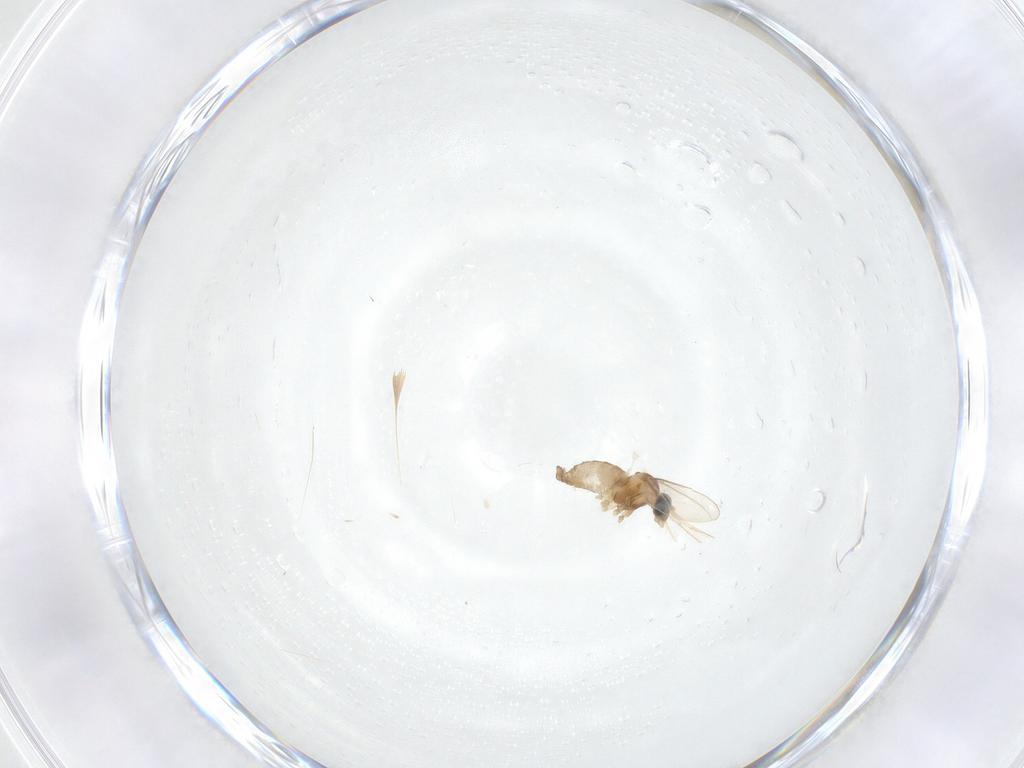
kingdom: Animalia
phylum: Arthropoda
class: Insecta
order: Diptera
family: Cecidomyiidae
